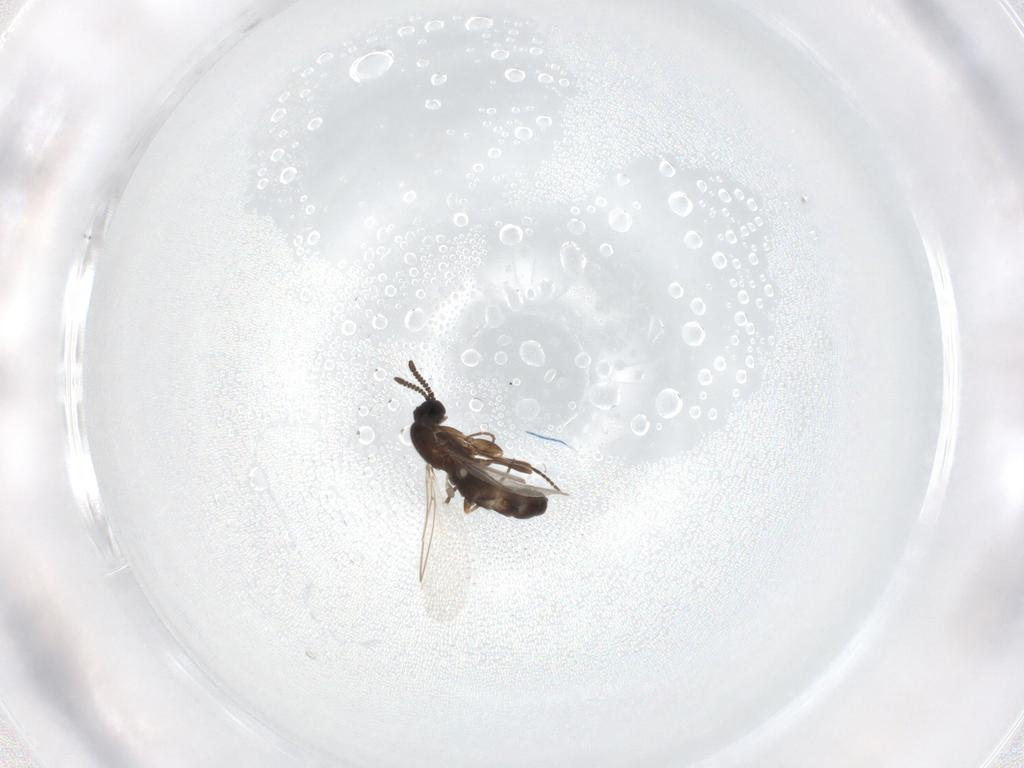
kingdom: Animalia
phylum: Arthropoda
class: Insecta
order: Diptera
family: Scatopsidae
